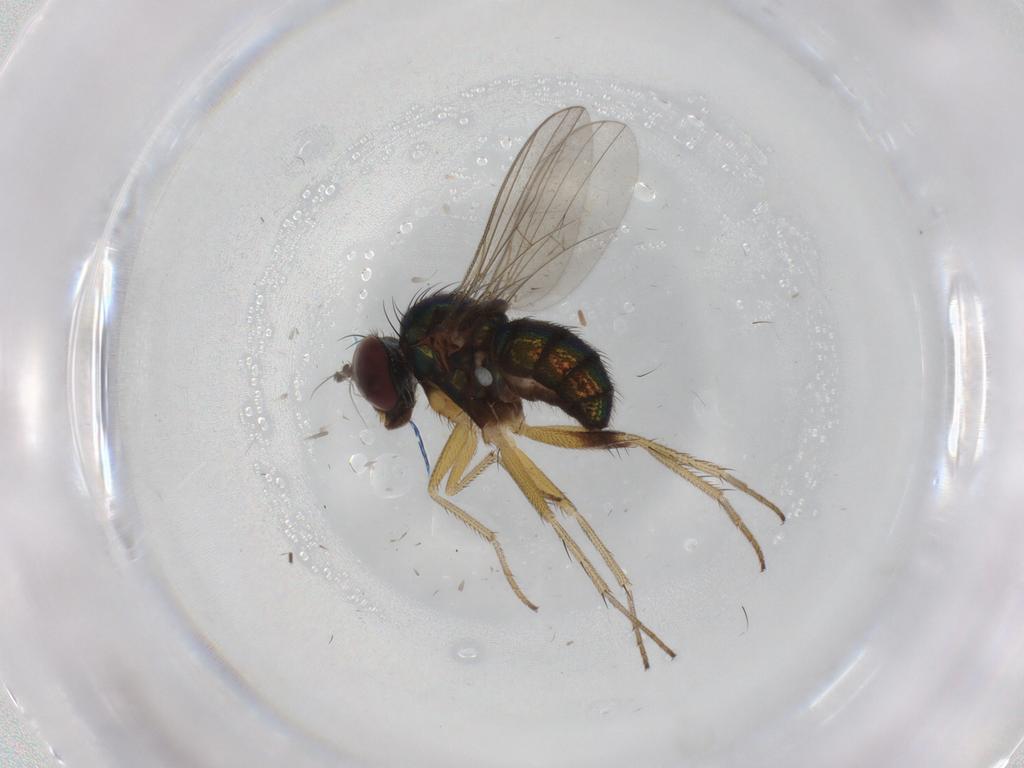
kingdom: Animalia
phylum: Arthropoda
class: Insecta
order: Diptera
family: Dolichopodidae
